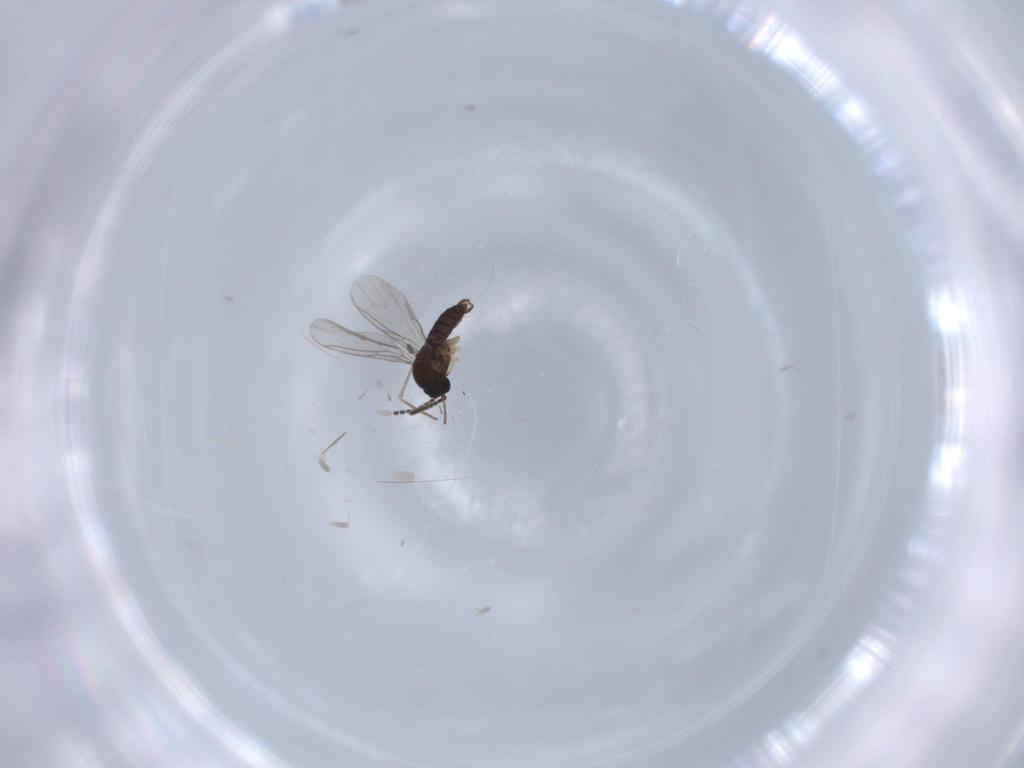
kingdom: Animalia
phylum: Arthropoda
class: Insecta
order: Diptera
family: Sciaridae
